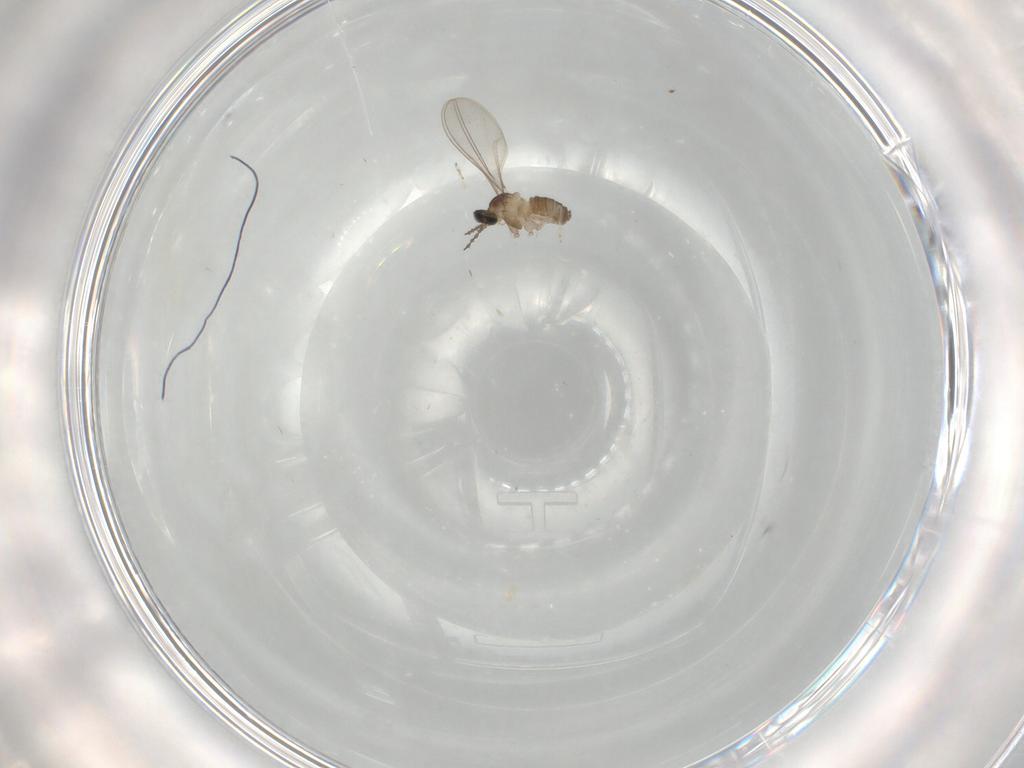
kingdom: Animalia
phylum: Arthropoda
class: Insecta
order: Diptera
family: Cecidomyiidae
